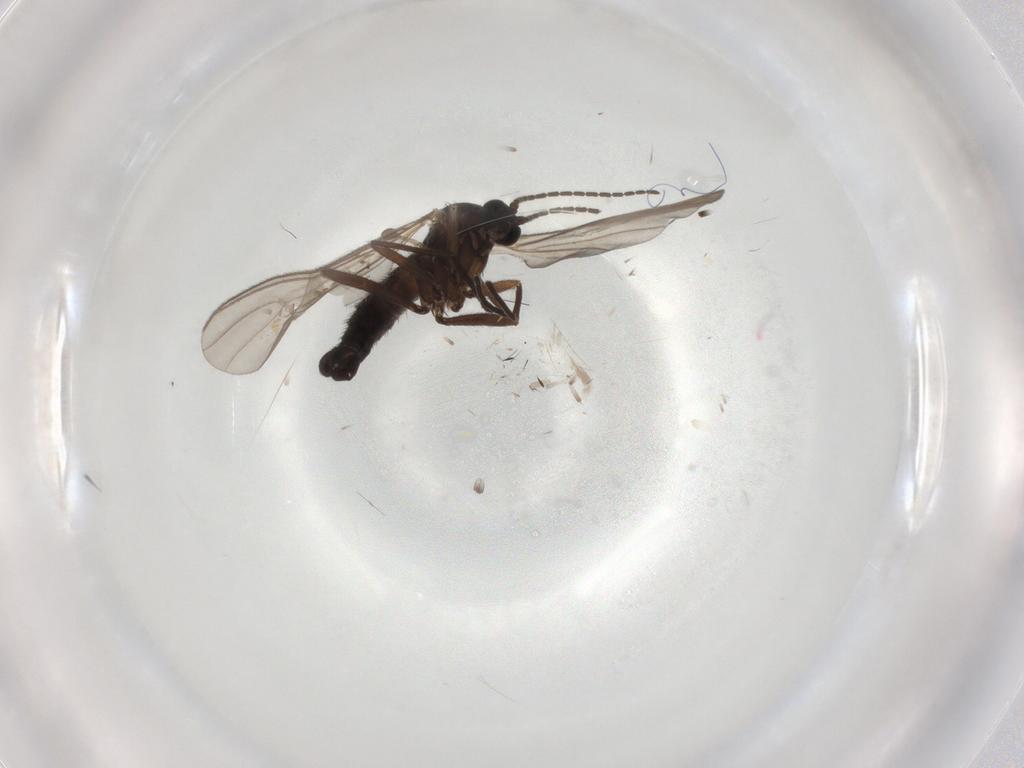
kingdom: Animalia
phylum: Arthropoda
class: Insecta
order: Diptera
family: Sciaridae
